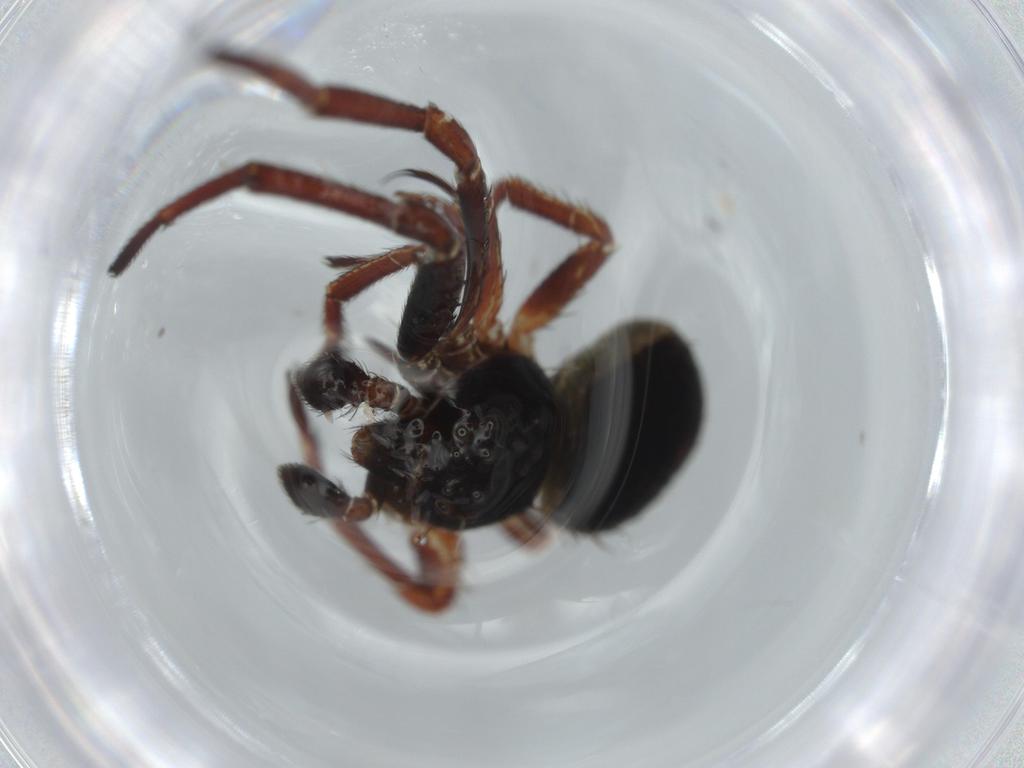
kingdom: Animalia
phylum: Arthropoda
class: Arachnida
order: Araneae
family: Thomisidae
